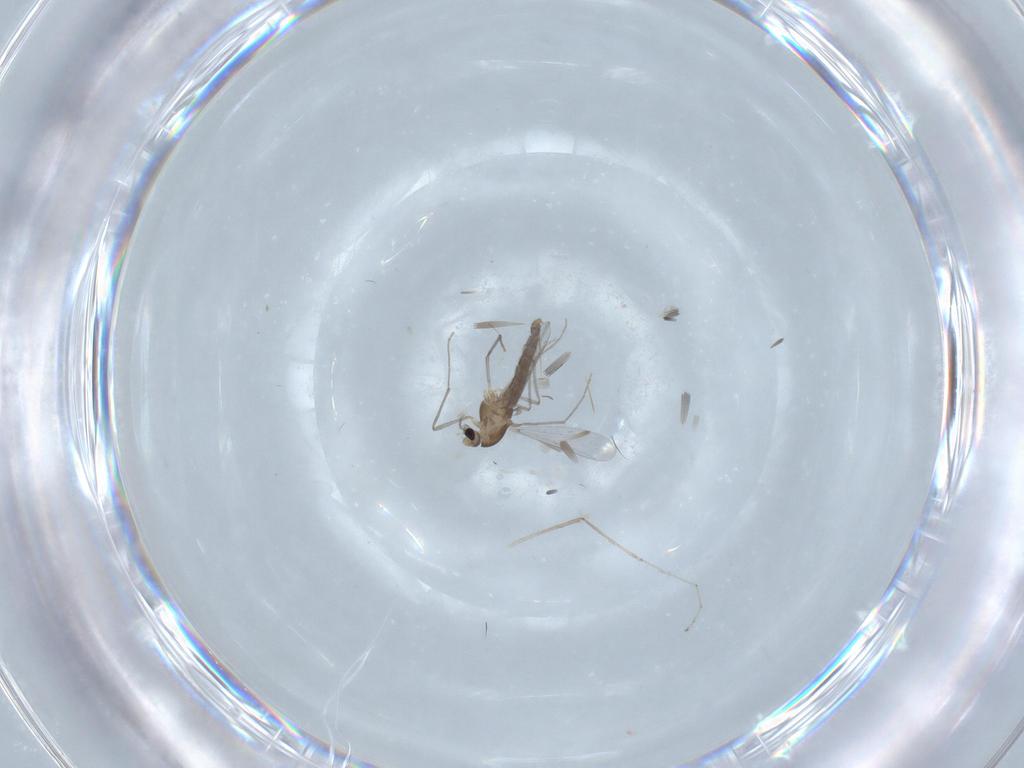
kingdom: Animalia
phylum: Arthropoda
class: Insecta
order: Diptera
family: Chironomidae
